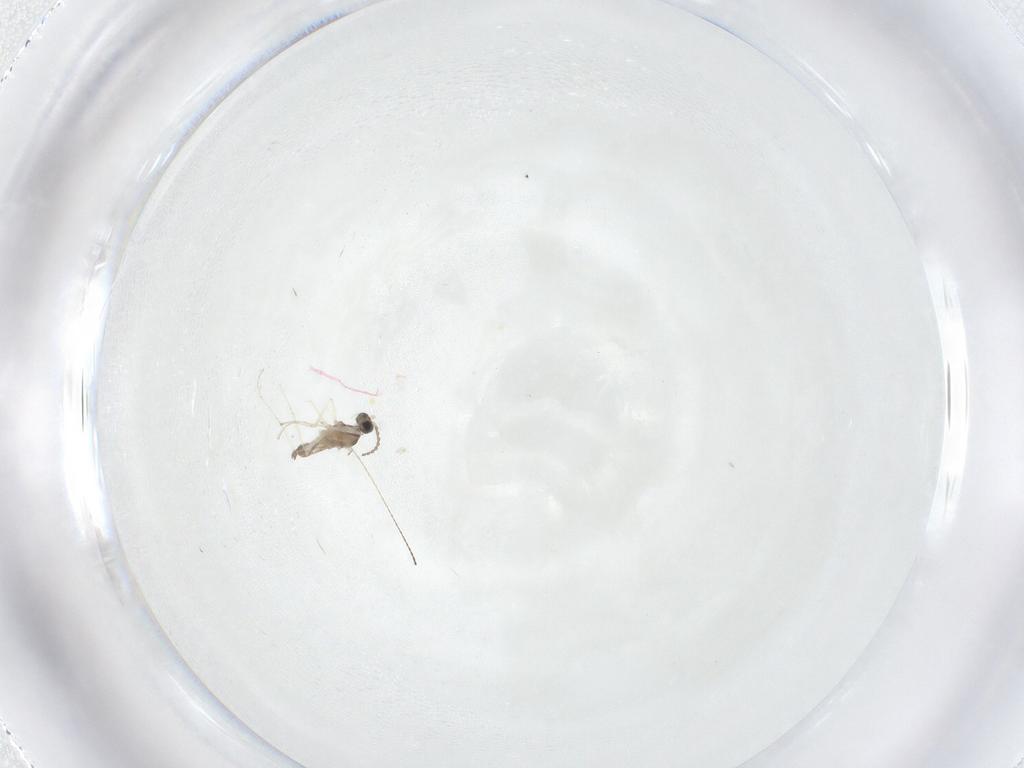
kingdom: Animalia
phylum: Arthropoda
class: Insecta
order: Diptera
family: Cecidomyiidae
